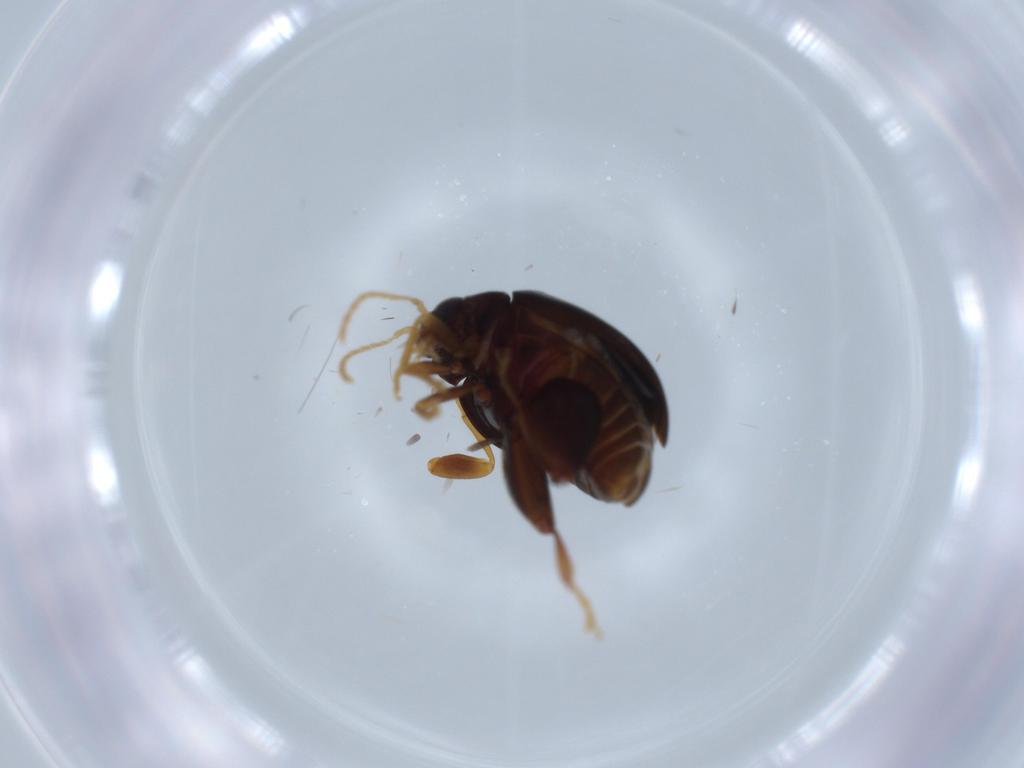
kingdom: Animalia
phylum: Arthropoda
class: Insecta
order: Coleoptera
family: Chrysomelidae
